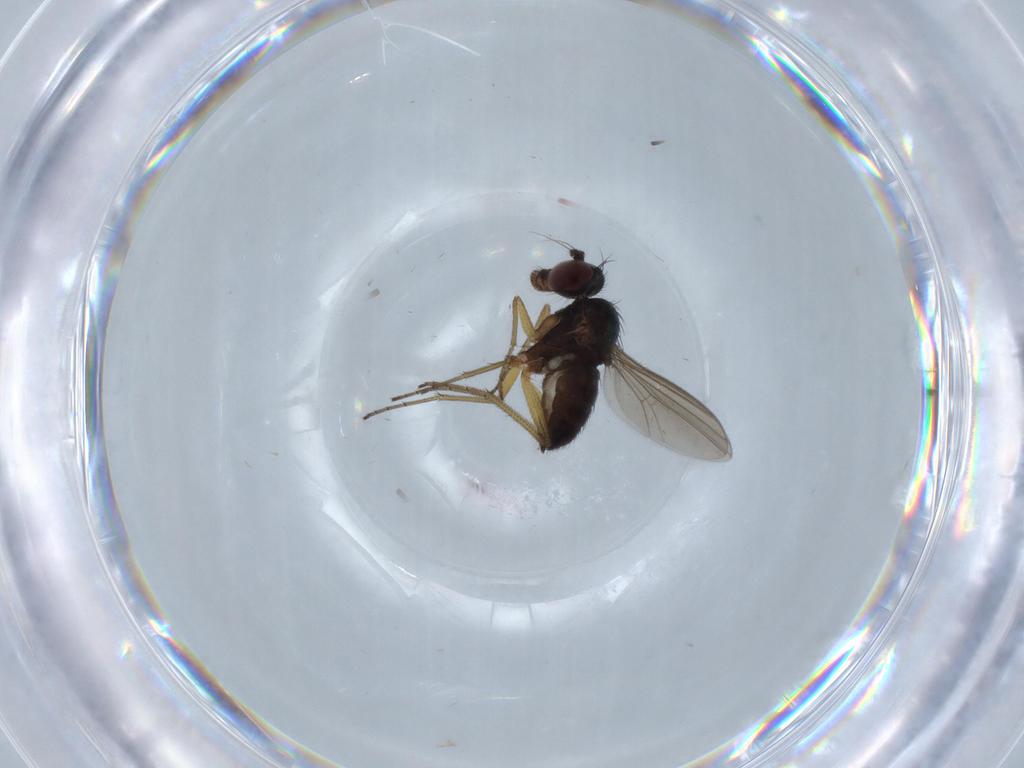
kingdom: Animalia
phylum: Arthropoda
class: Insecta
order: Diptera
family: Dolichopodidae
